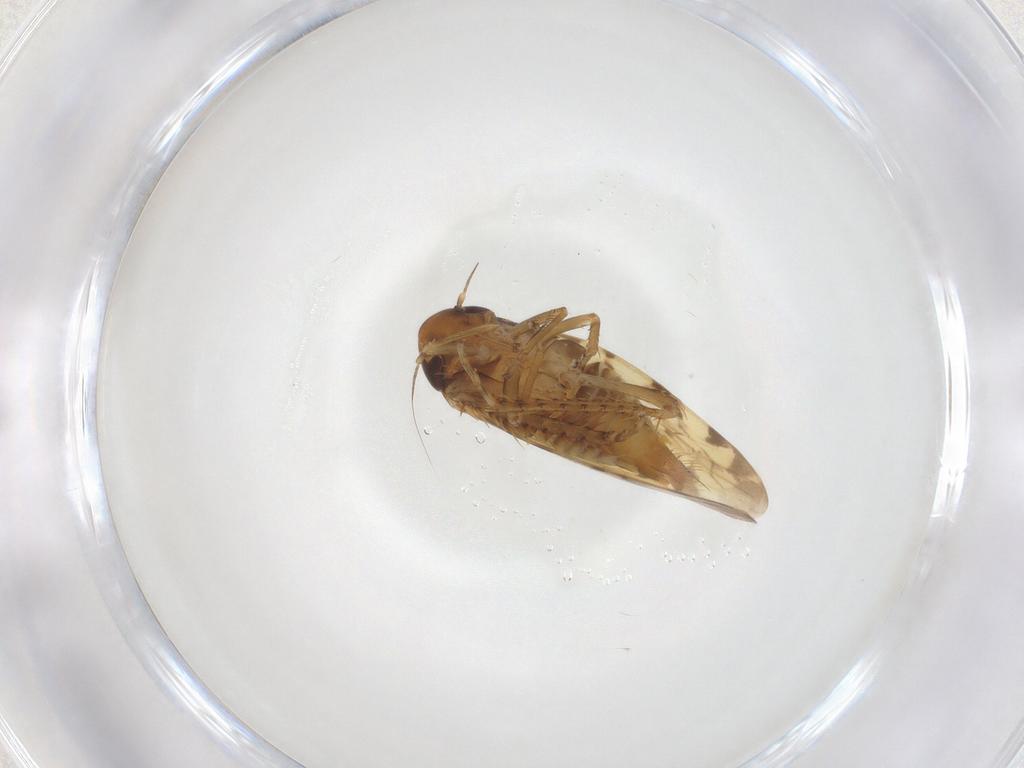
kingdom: Animalia
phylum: Arthropoda
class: Insecta
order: Hemiptera
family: Cicadellidae
